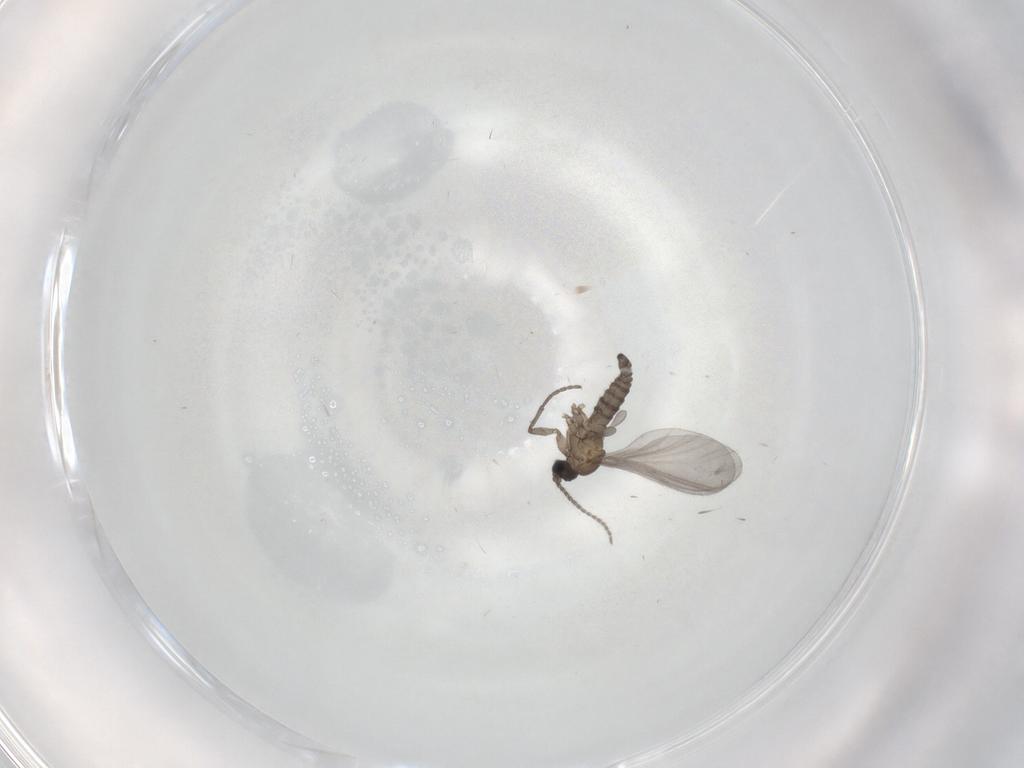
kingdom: Animalia
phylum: Arthropoda
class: Insecta
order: Diptera
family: Sciaridae
